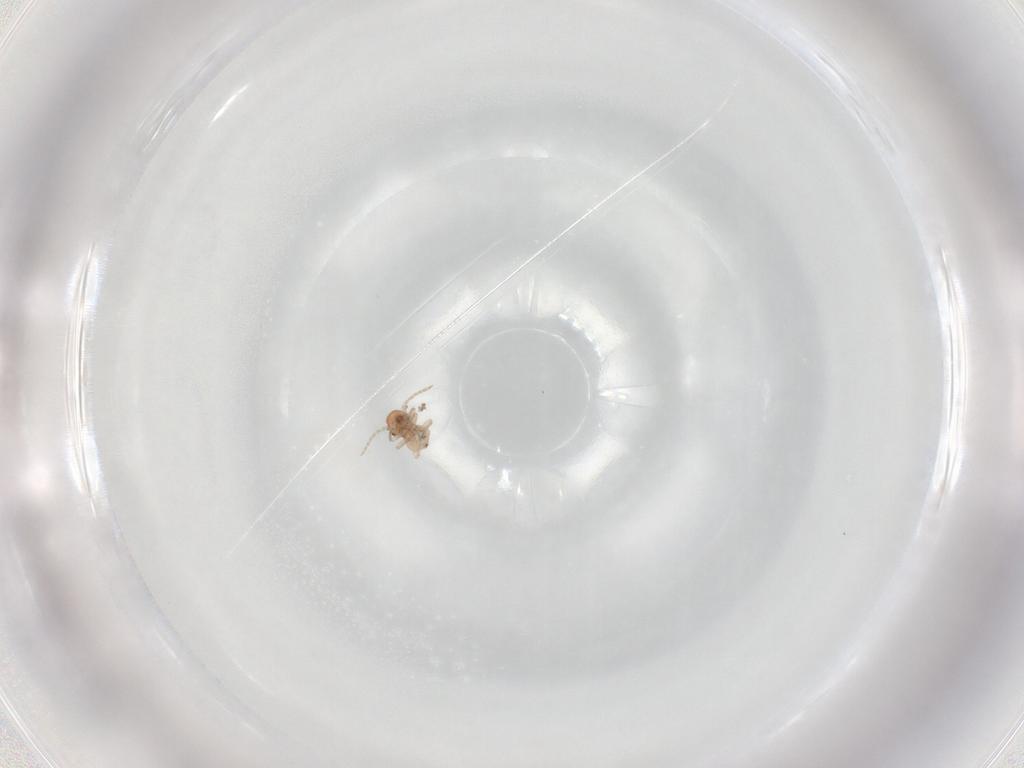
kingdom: Animalia
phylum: Arthropoda
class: Insecta
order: Psocodea
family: Caeciliusidae
